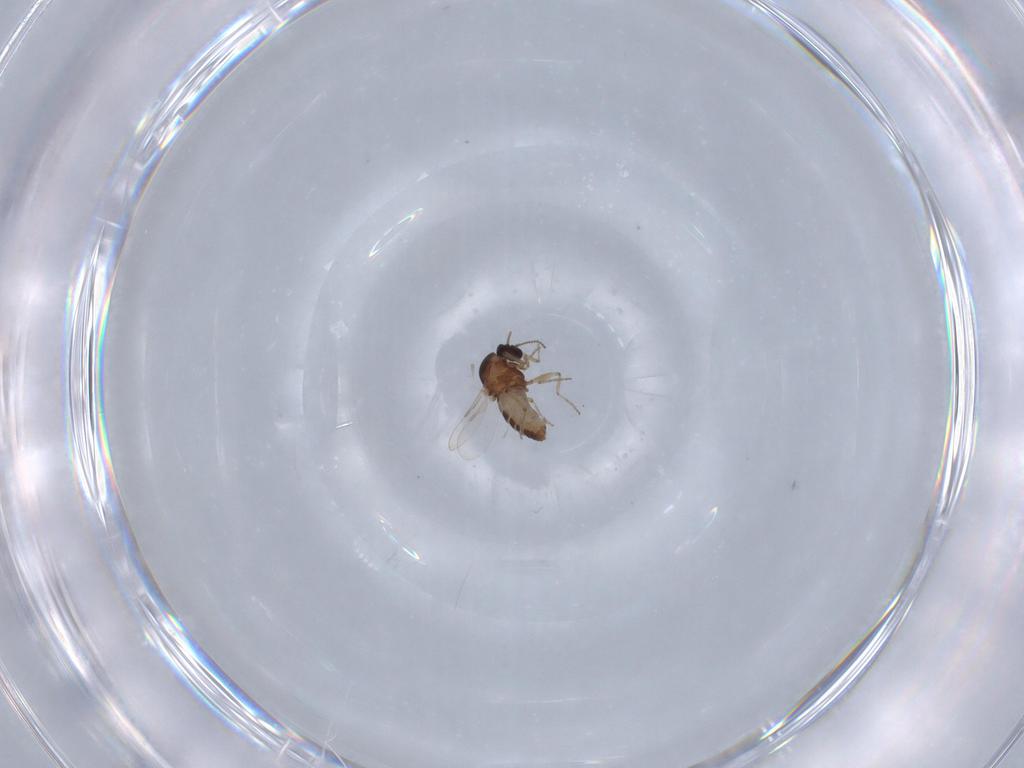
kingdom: Animalia
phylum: Arthropoda
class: Insecta
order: Diptera
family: Ceratopogonidae
